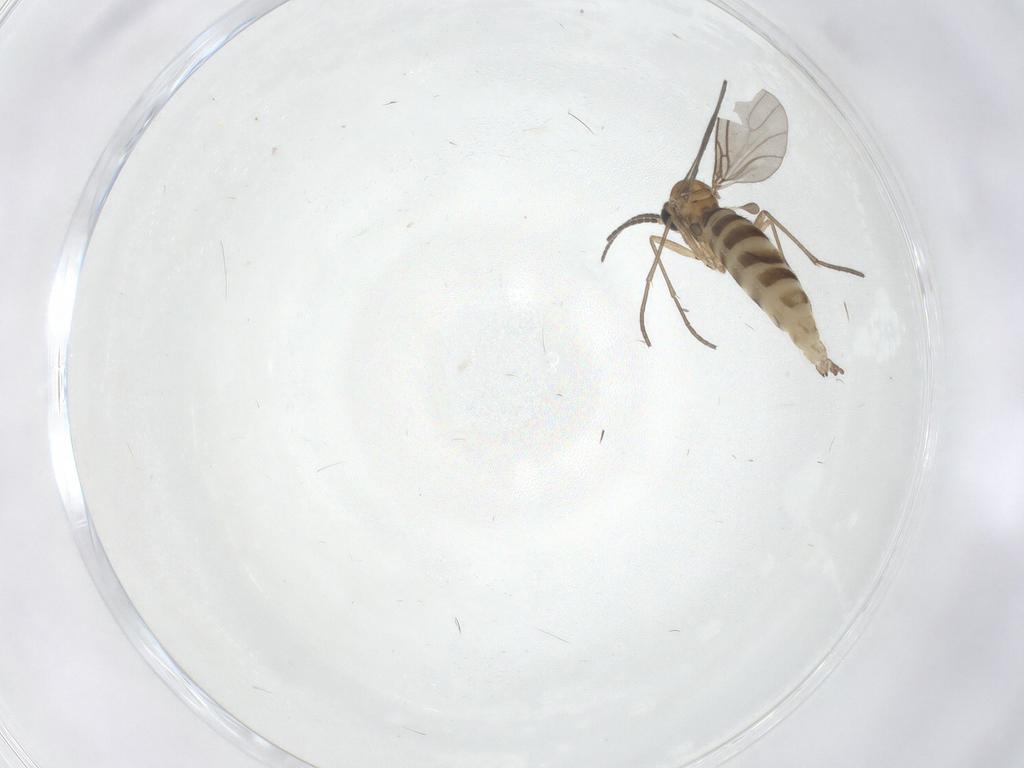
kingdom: Animalia
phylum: Arthropoda
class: Insecta
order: Diptera
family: Sciaridae
